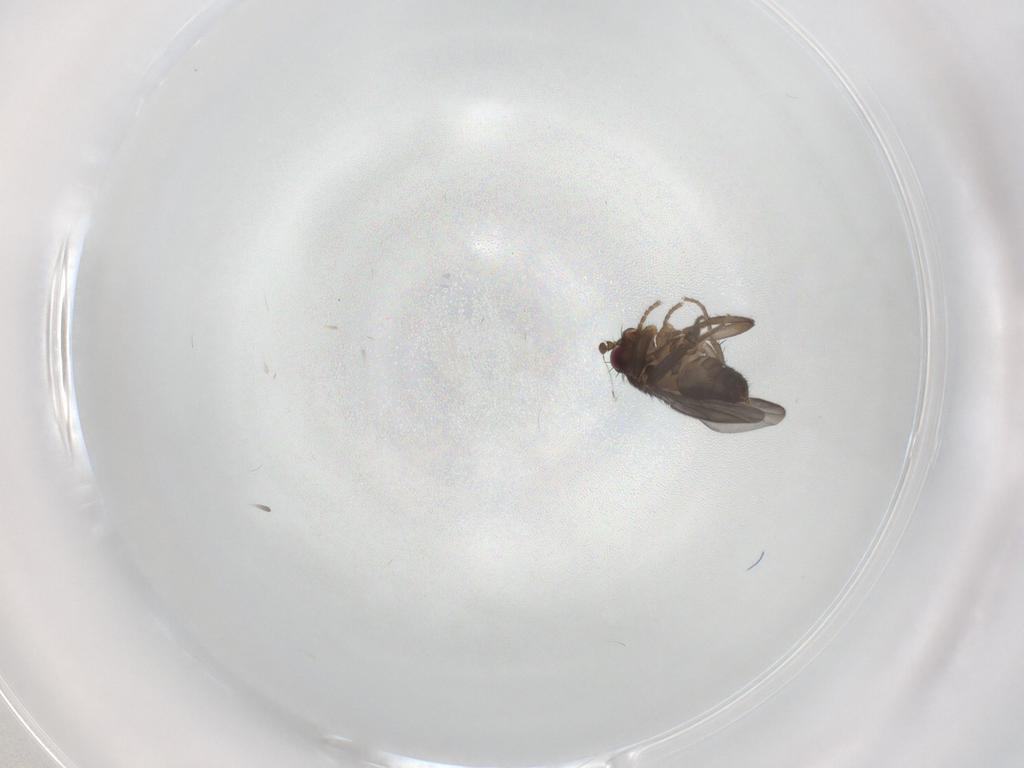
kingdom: Animalia
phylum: Arthropoda
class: Insecta
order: Diptera
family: Sphaeroceridae
